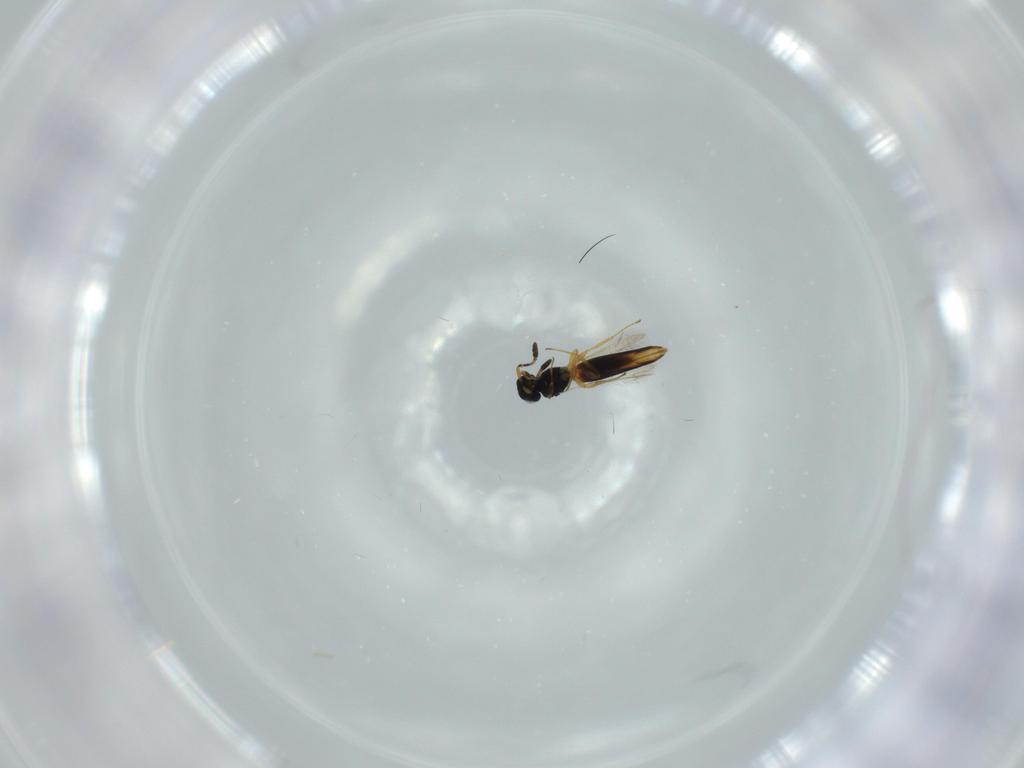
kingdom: Animalia
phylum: Arthropoda
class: Insecta
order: Hymenoptera
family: Scelionidae
